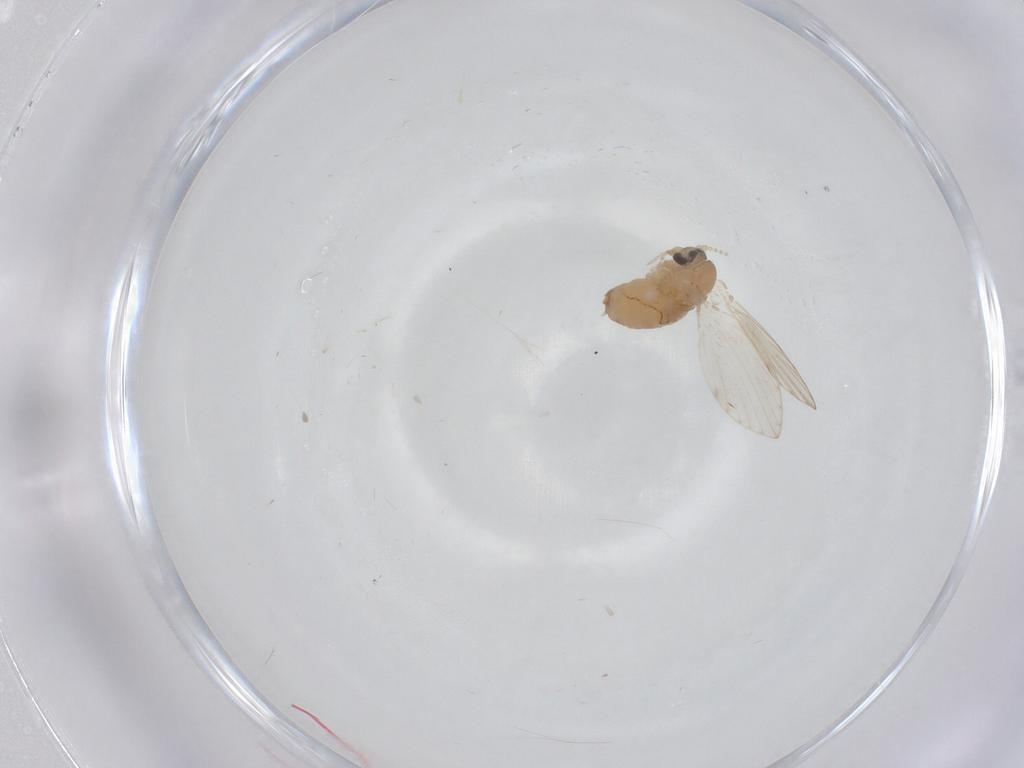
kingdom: Animalia
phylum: Arthropoda
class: Insecta
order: Diptera
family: Psychodidae
